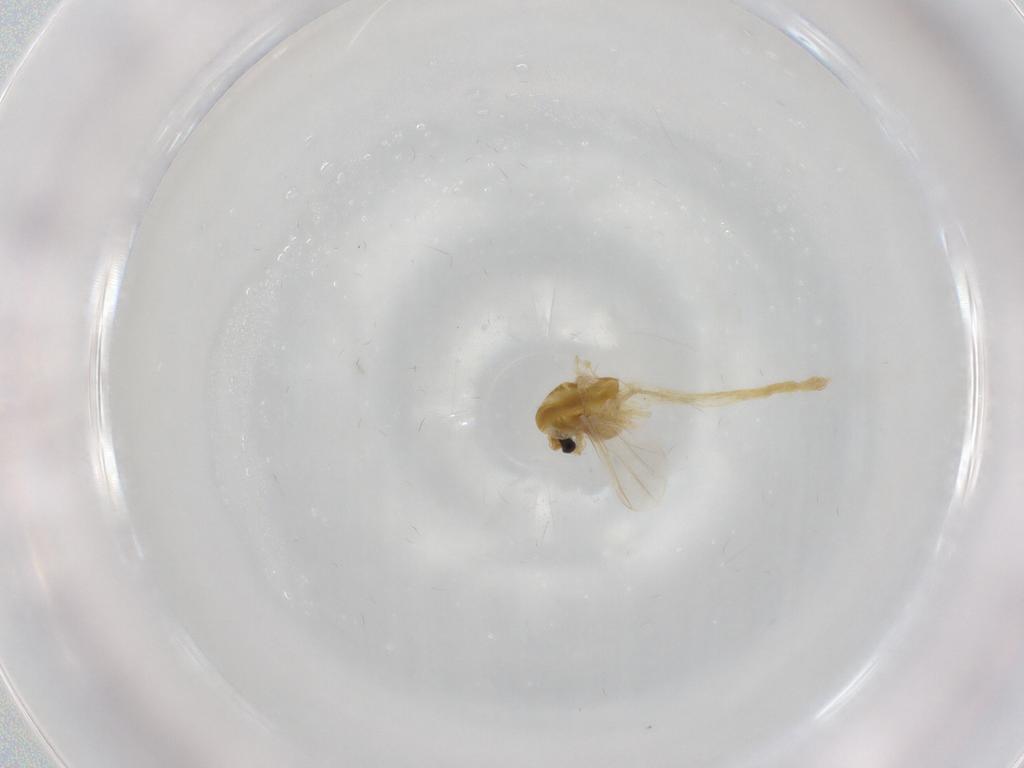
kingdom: Animalia
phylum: Arthropoda
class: Insecta
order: Diptera
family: Chironomidae
